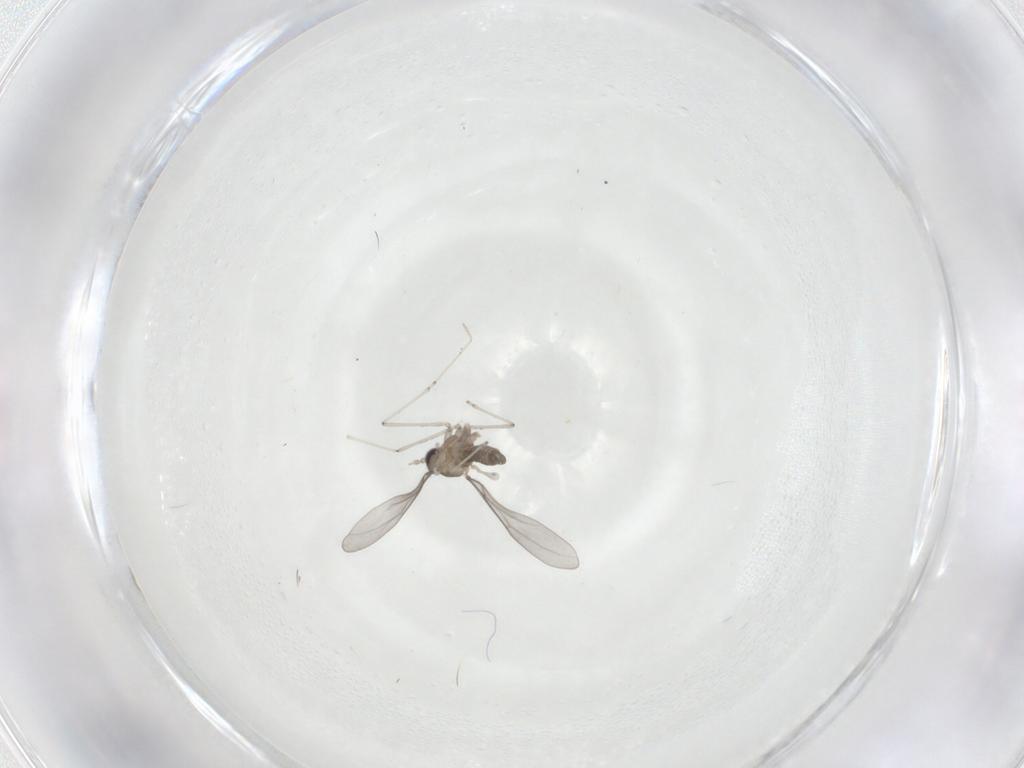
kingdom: Animalia
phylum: Arthropoda
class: Insecta
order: Diptera
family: Cecidomyiidae
